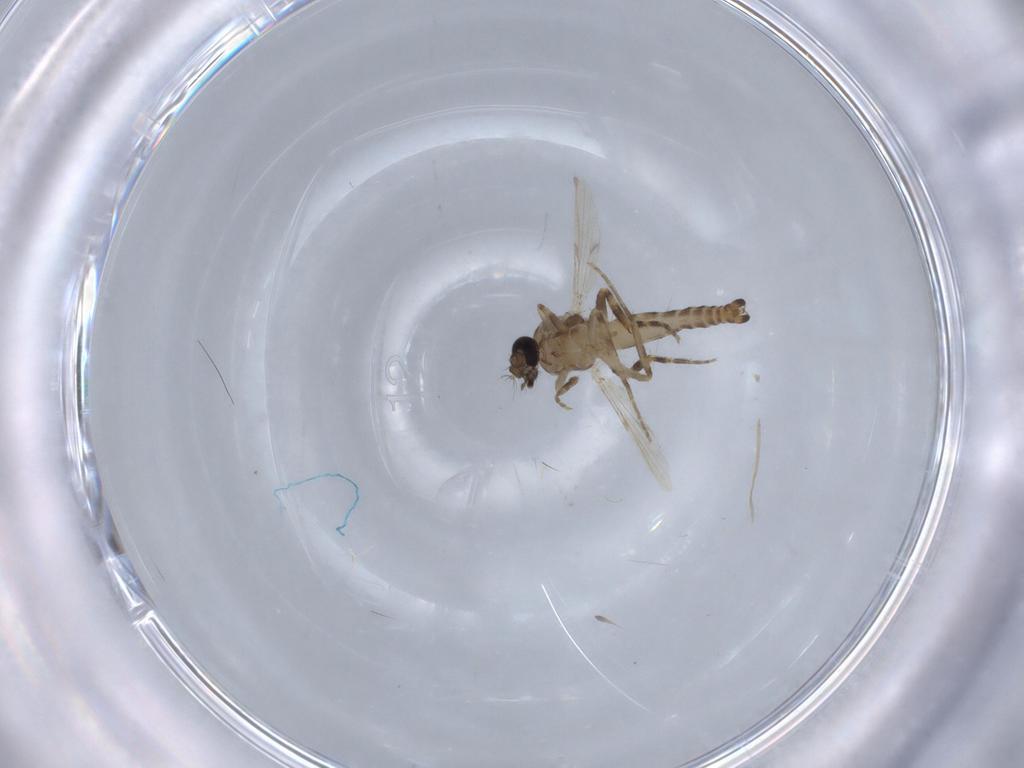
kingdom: Animalia
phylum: Arthropoda
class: Insecta
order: Diptera
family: Ceratopogonidae
